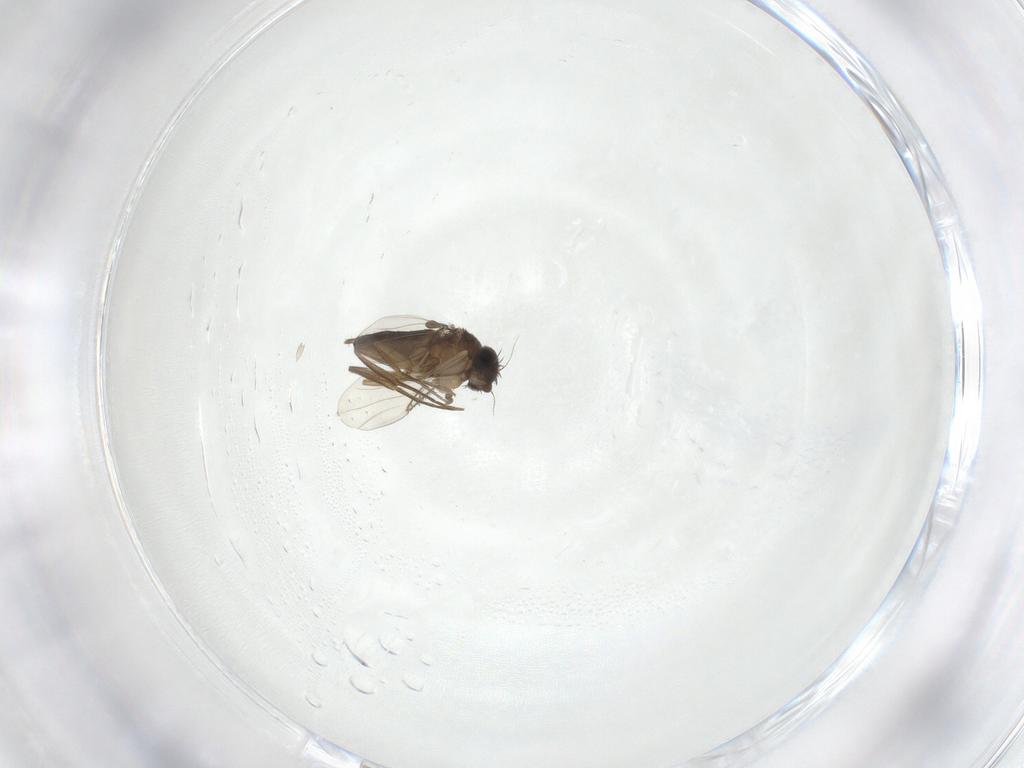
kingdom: Animalia
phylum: Arthropoda
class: Insecta
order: Diptera
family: Phoridae
